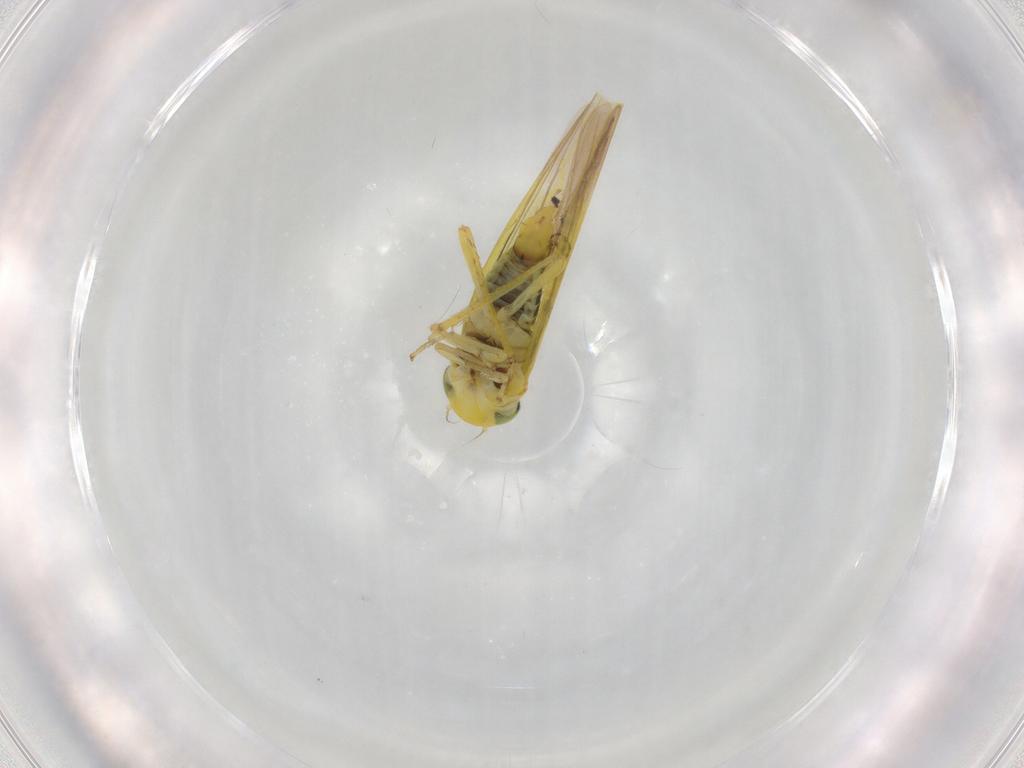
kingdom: Animalia
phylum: Arthropoda
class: Insecta
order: Hemiptera
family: Cicadellidae
